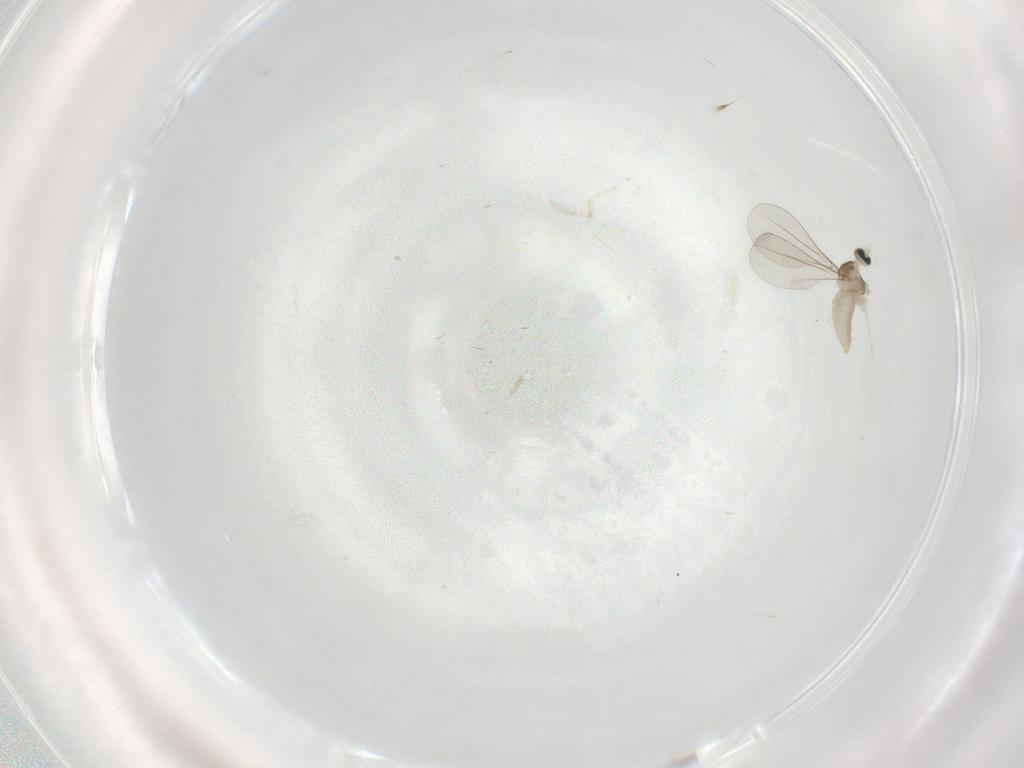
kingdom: Animalia
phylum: Arthropoda
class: Insecta
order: Diptera
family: Cecidomyiidae
